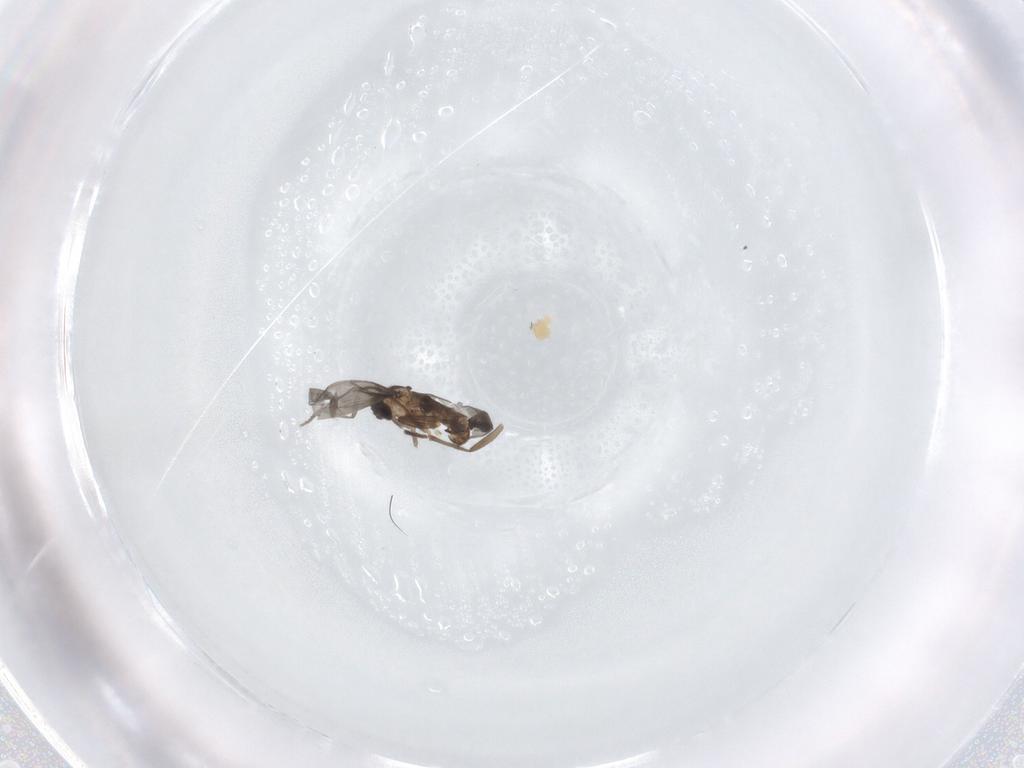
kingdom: Animalia
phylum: Arthropoda
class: Insecta
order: Diptera
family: Chironomidae
